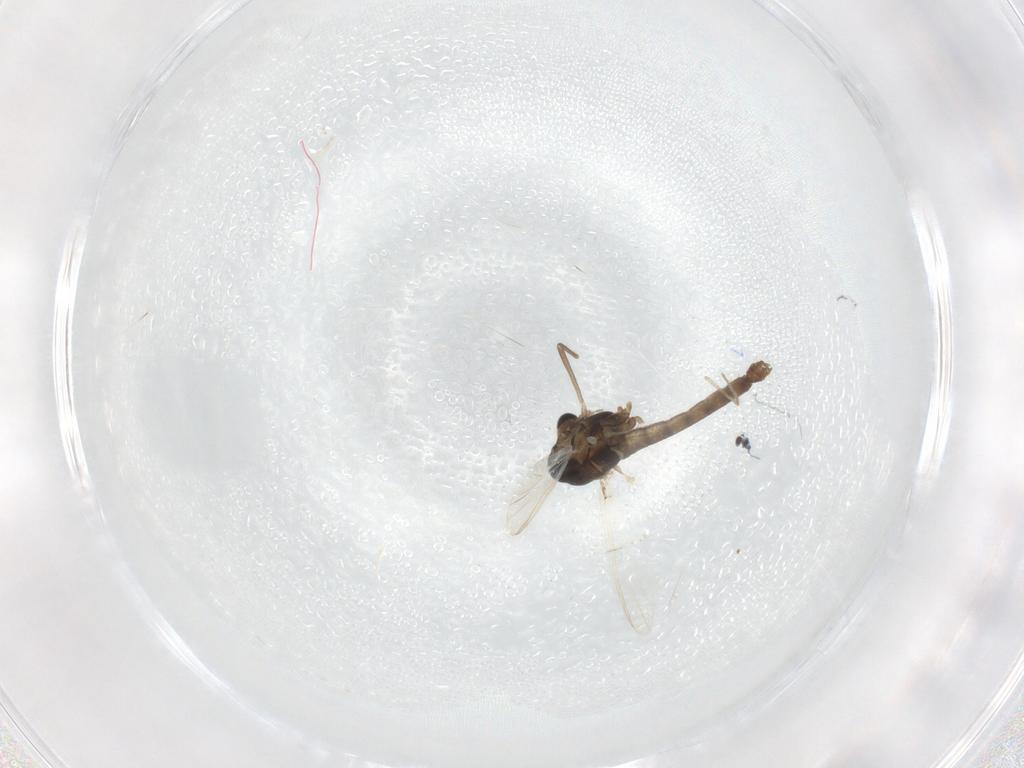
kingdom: Animalia
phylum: Arthropoda
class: Insecta
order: Diptera
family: Chironomidae
